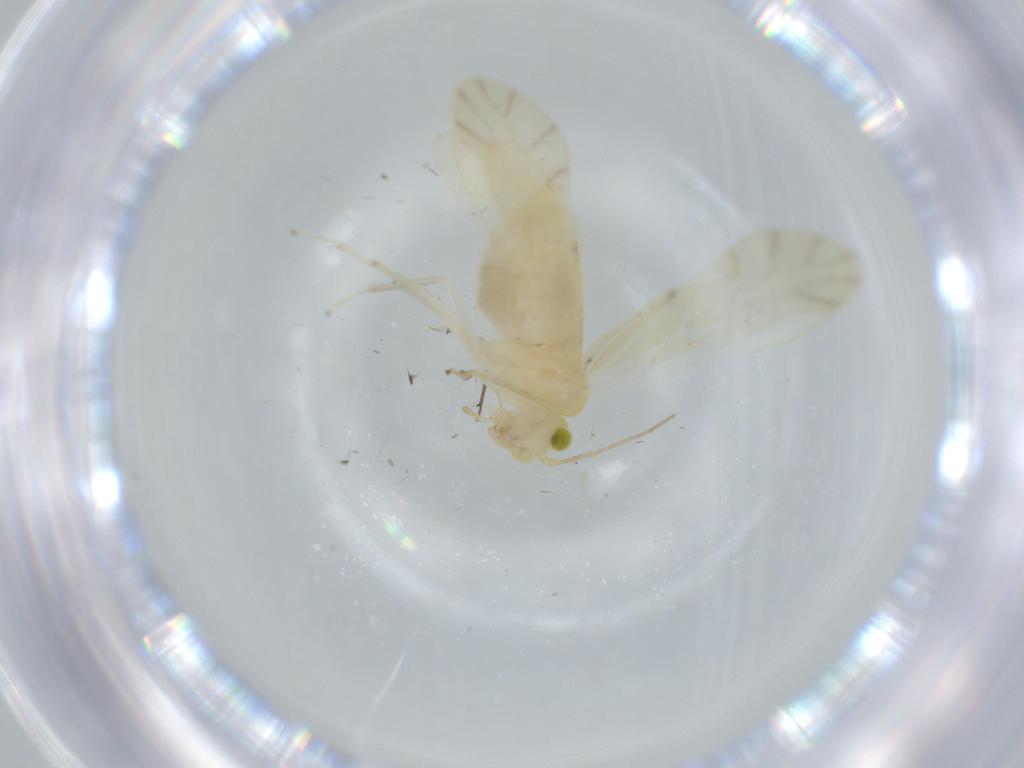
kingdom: Animalia
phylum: Arthropoda
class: Insecta
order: Psocodea
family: Caeciliusidae
